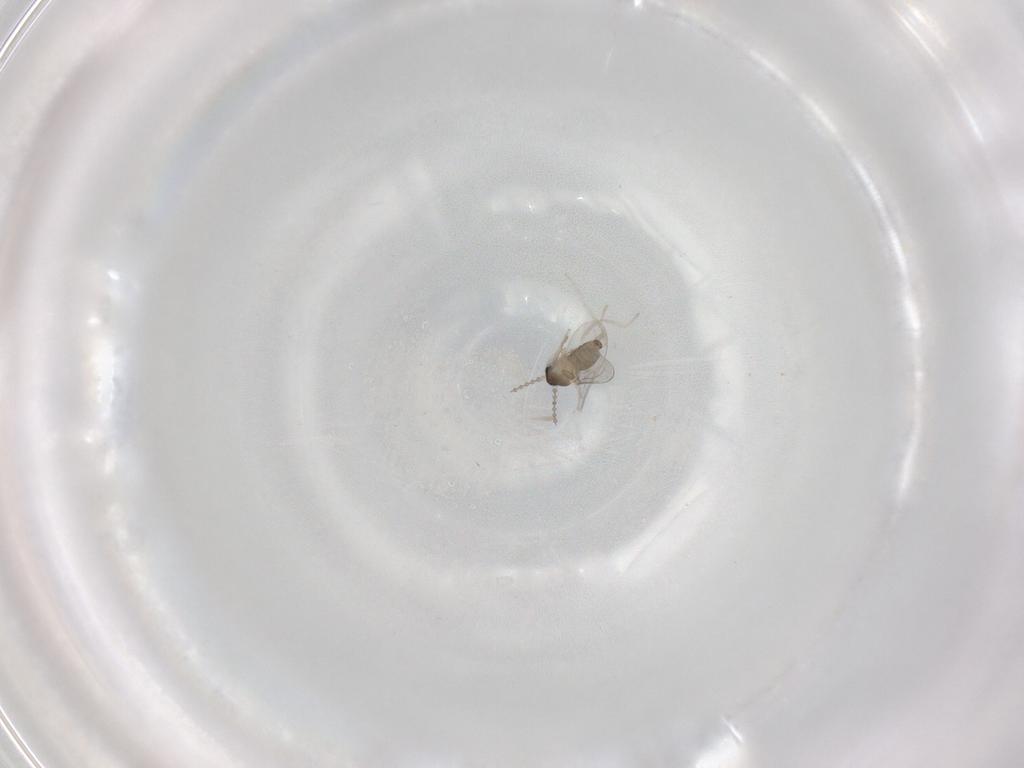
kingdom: Animalia
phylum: Arthropoda
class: Insecta
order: Diptera
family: Cecidomyiidae
